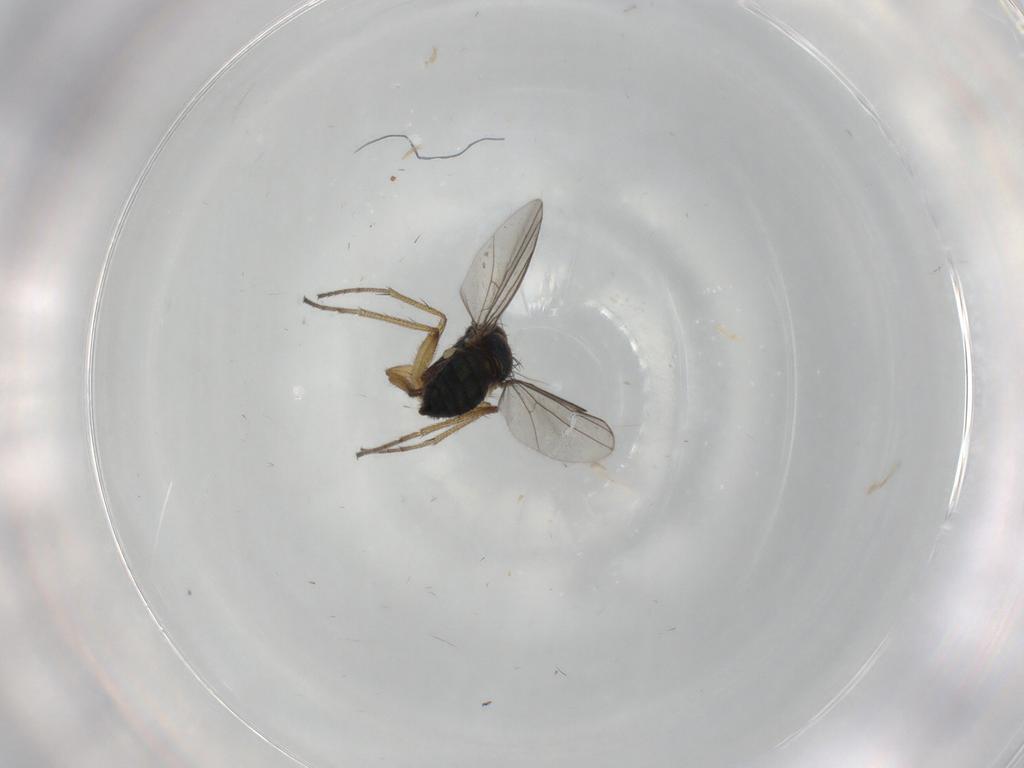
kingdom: Animalia
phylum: Arthropoda
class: Insecta
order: Diptera
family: Dolichopodidae
